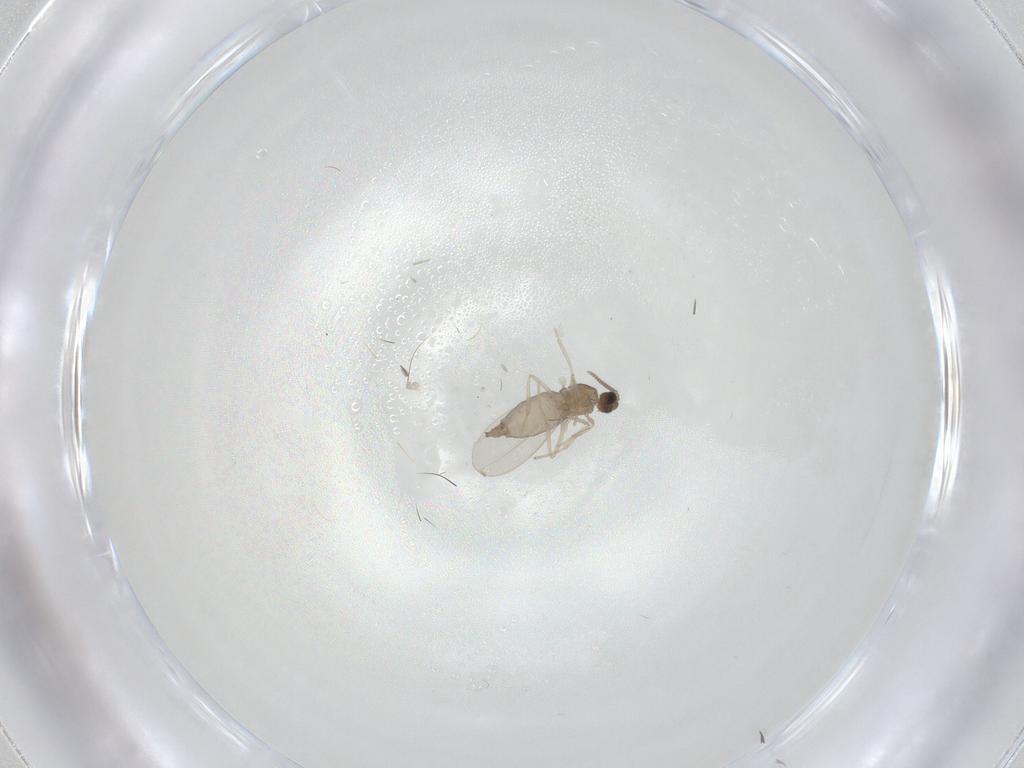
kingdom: Animalia
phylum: Arthropoda
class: Insecta
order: Diptera
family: Cecidomyiidae
